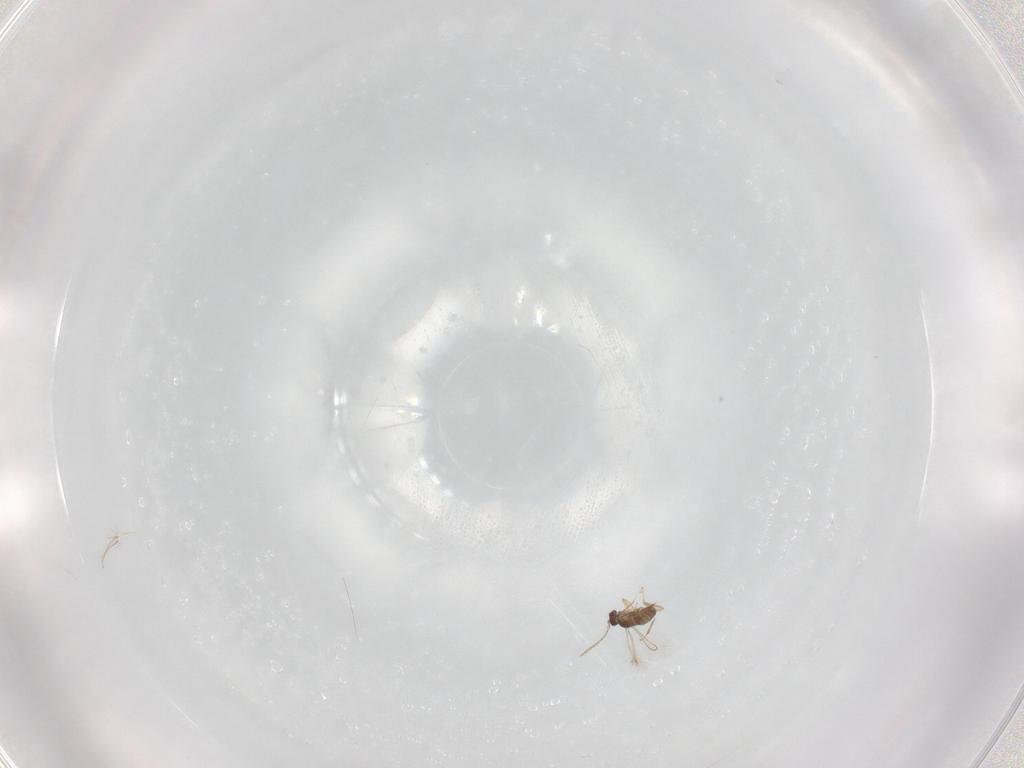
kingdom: Animalia
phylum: Arthropoda
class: Insecta
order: Hymenoptera
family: Mymaridae
